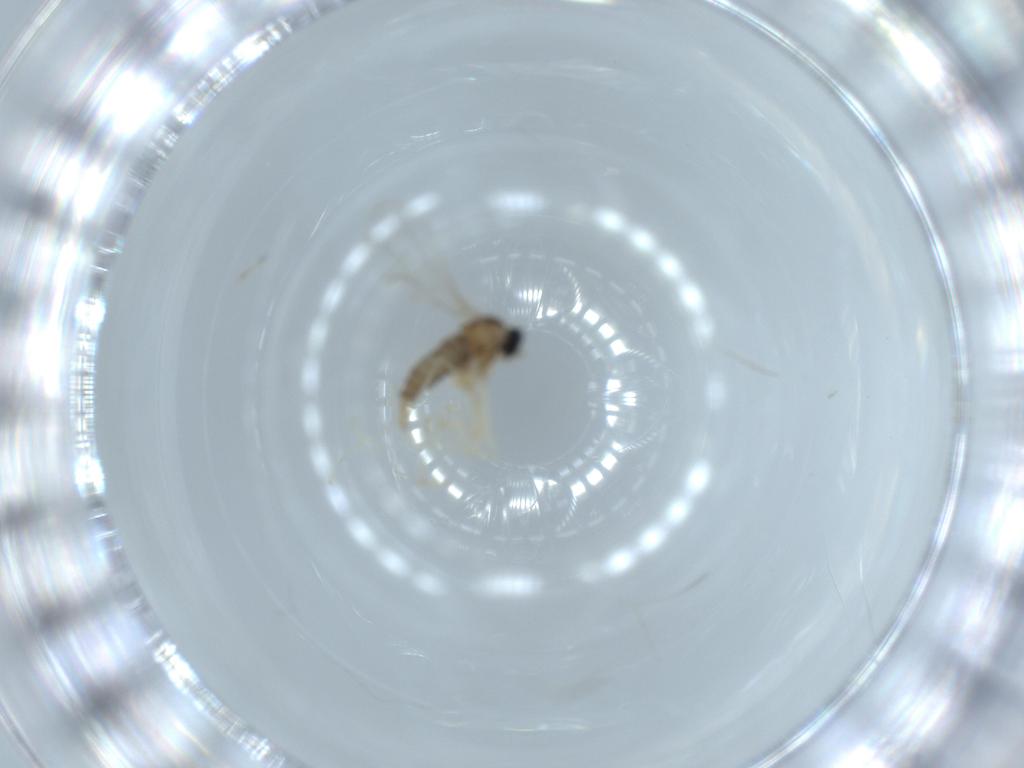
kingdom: Animalia
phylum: Arthropoda
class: Insecta
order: Diptera
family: Cecidomyiidae
